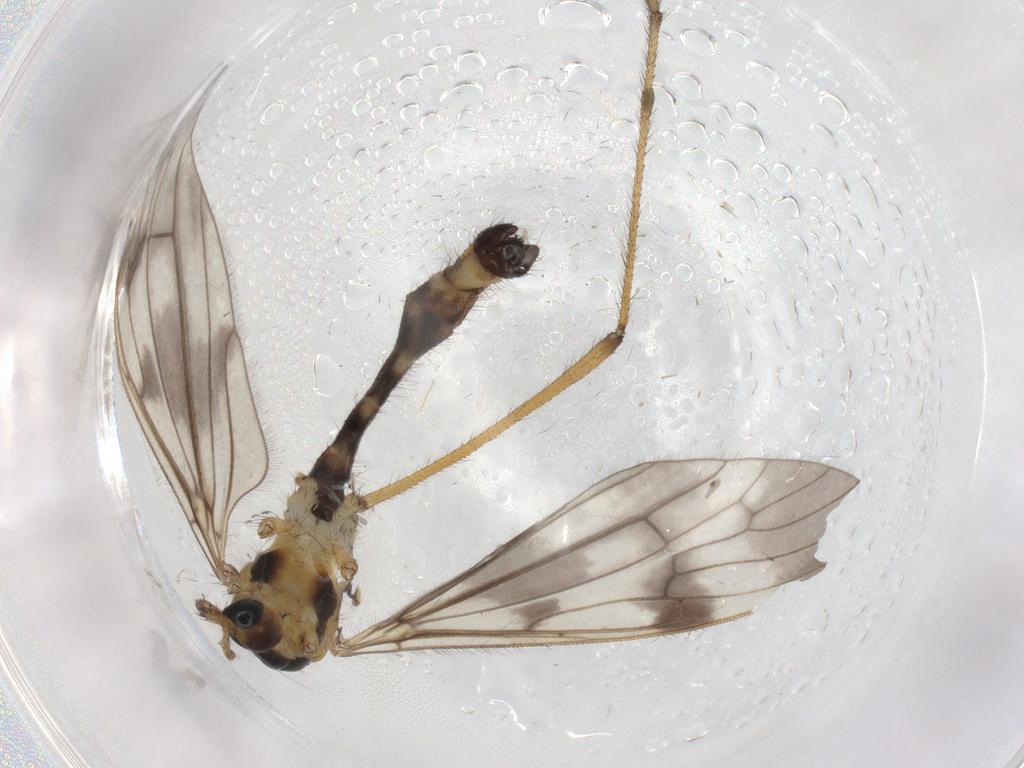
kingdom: Animalia
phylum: Arthropoda
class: Insecta
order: Diptera
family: Limoniidae
